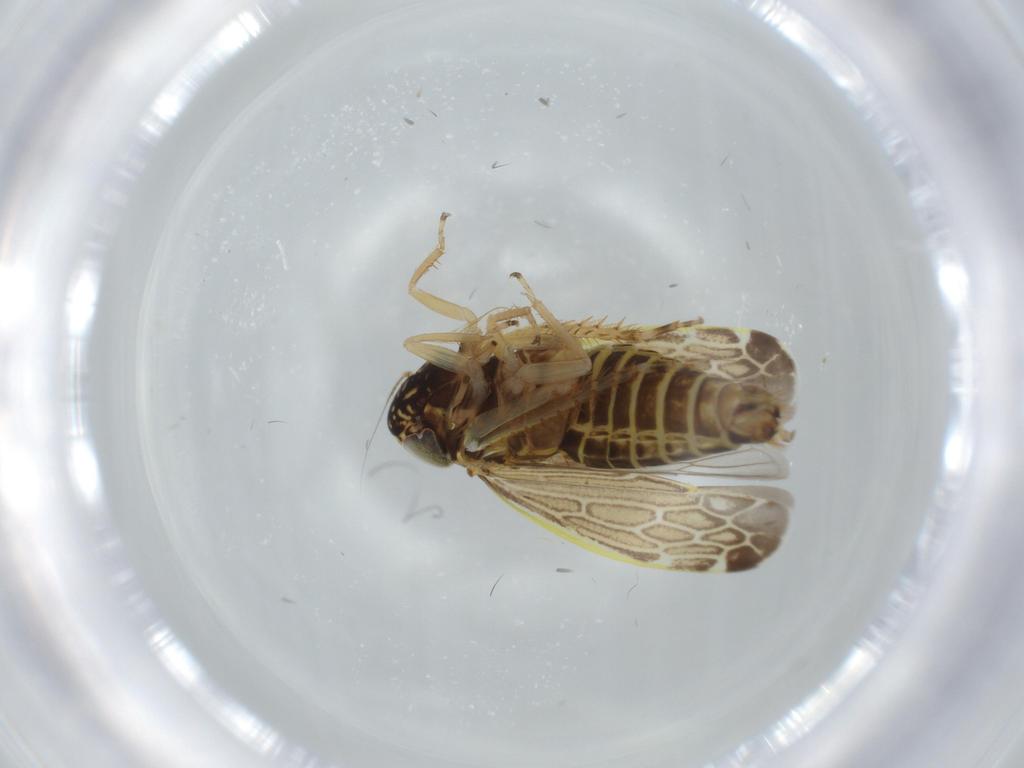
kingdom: Animalia
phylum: Arthropoda
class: Insecta
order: Hemiptera
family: Cicadellidae
